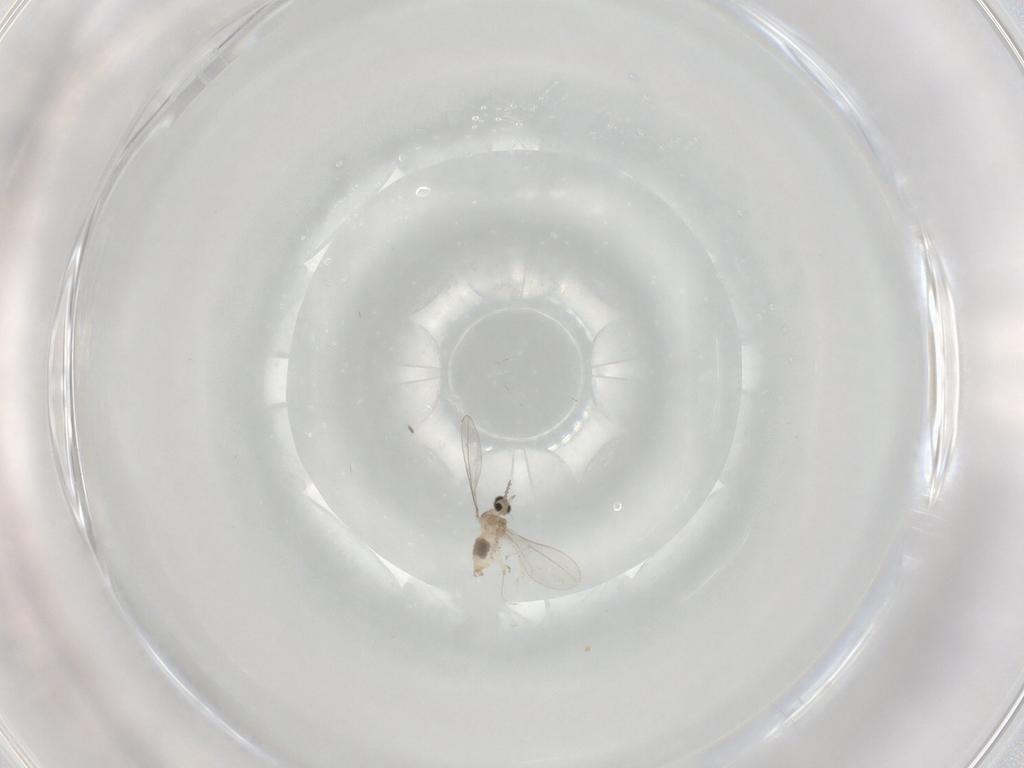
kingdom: Animalia
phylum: Arthropoda
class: Insecta
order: Diptera
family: Cecidomyiidae
